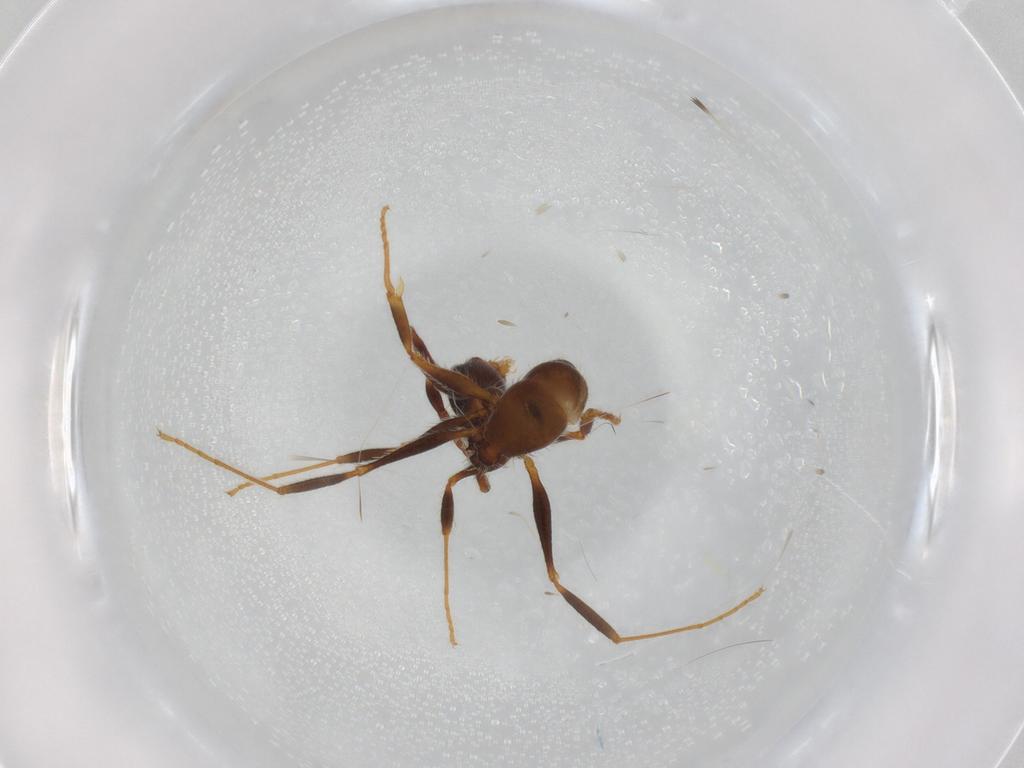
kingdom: Animalia
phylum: Arthropoda
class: Insecta
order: Hymenoptera
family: Formicidae
